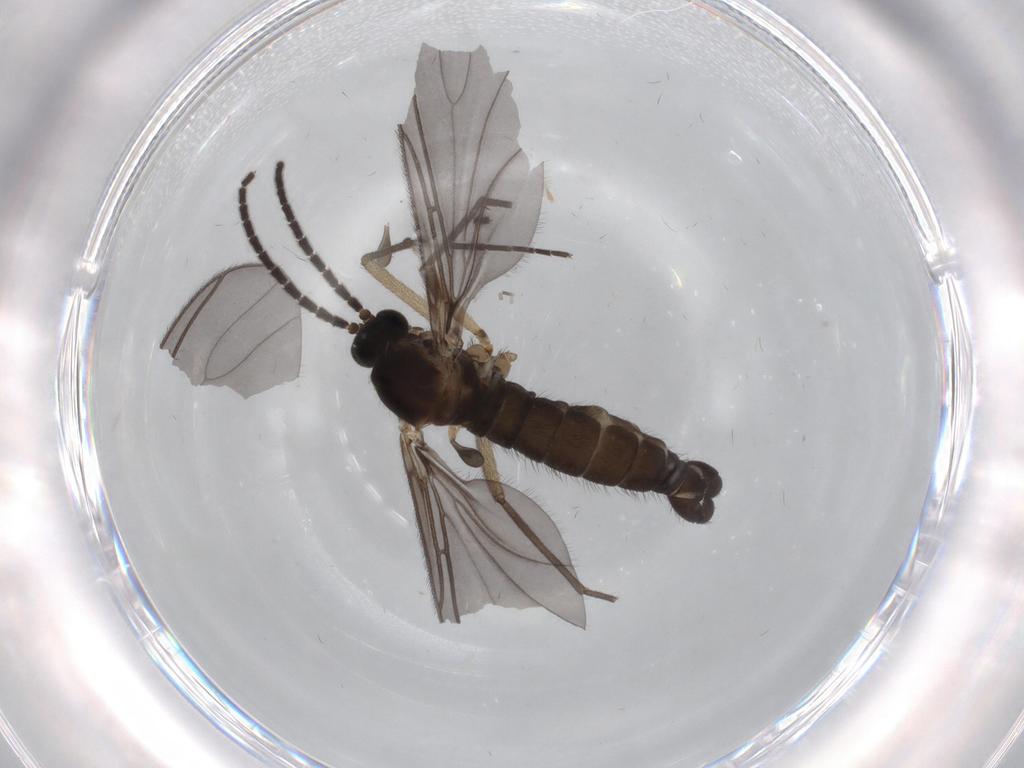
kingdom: Animalia
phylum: Arthropoda
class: Insecta
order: Diptera
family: Sciaridae
